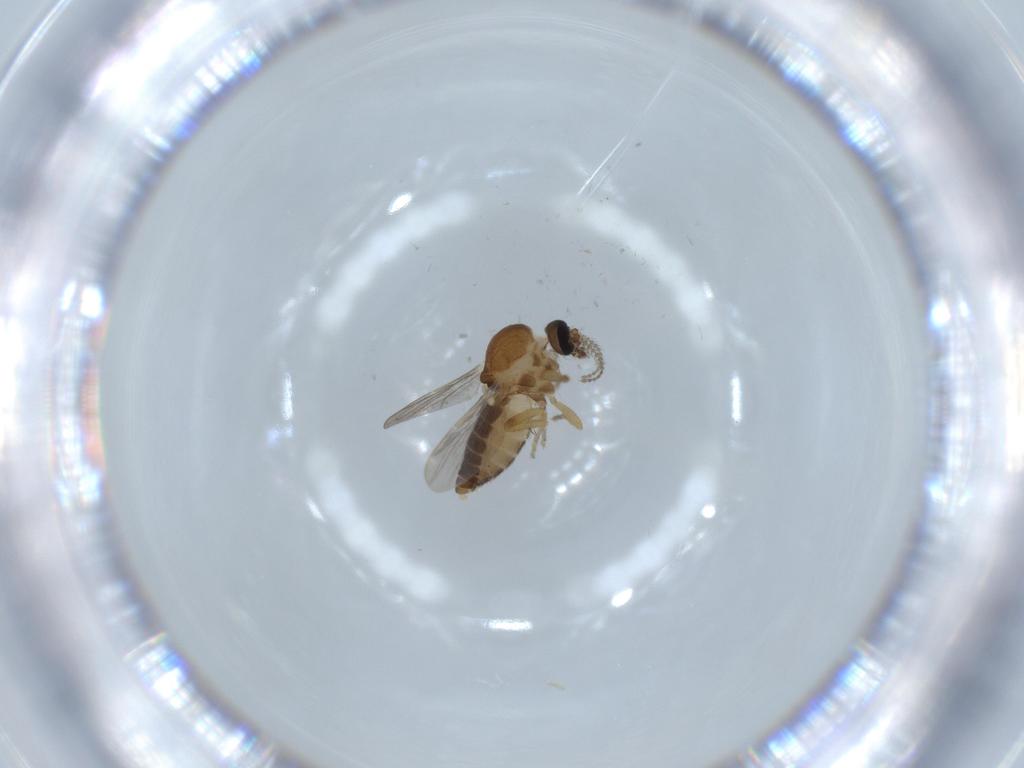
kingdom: Animalia
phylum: Arthropoda
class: Insecta
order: Diptera
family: Ceratopogonidae
